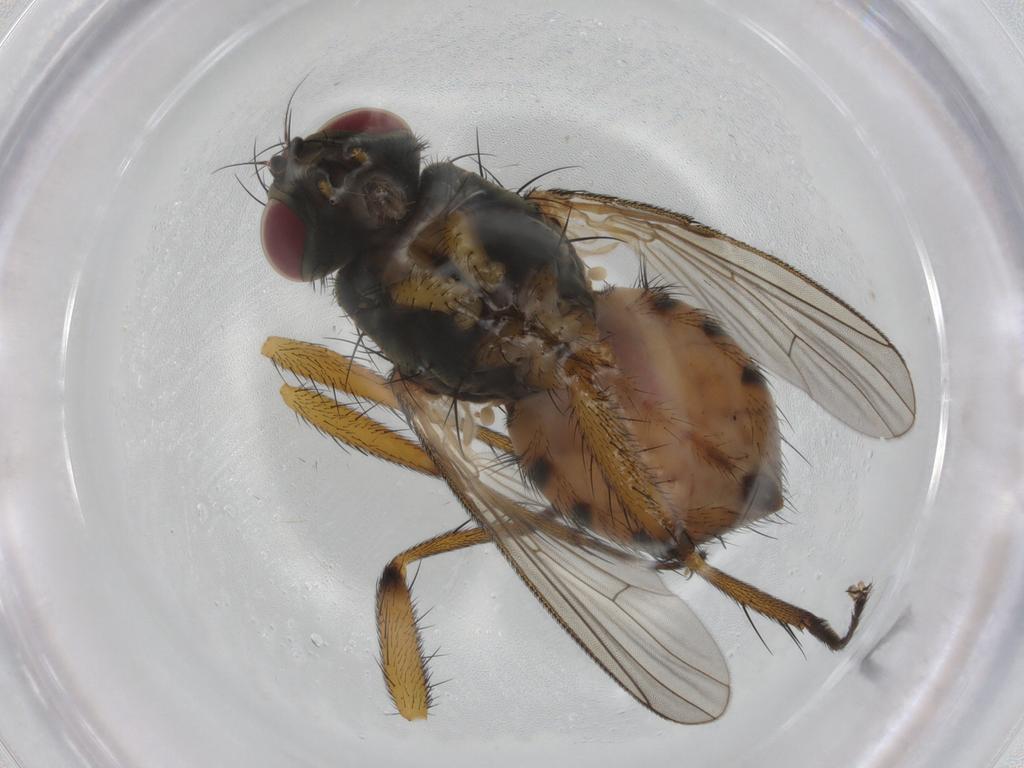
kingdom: Animalia
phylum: Arthropoda
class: Insecta
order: Diptera
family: Muscidae
